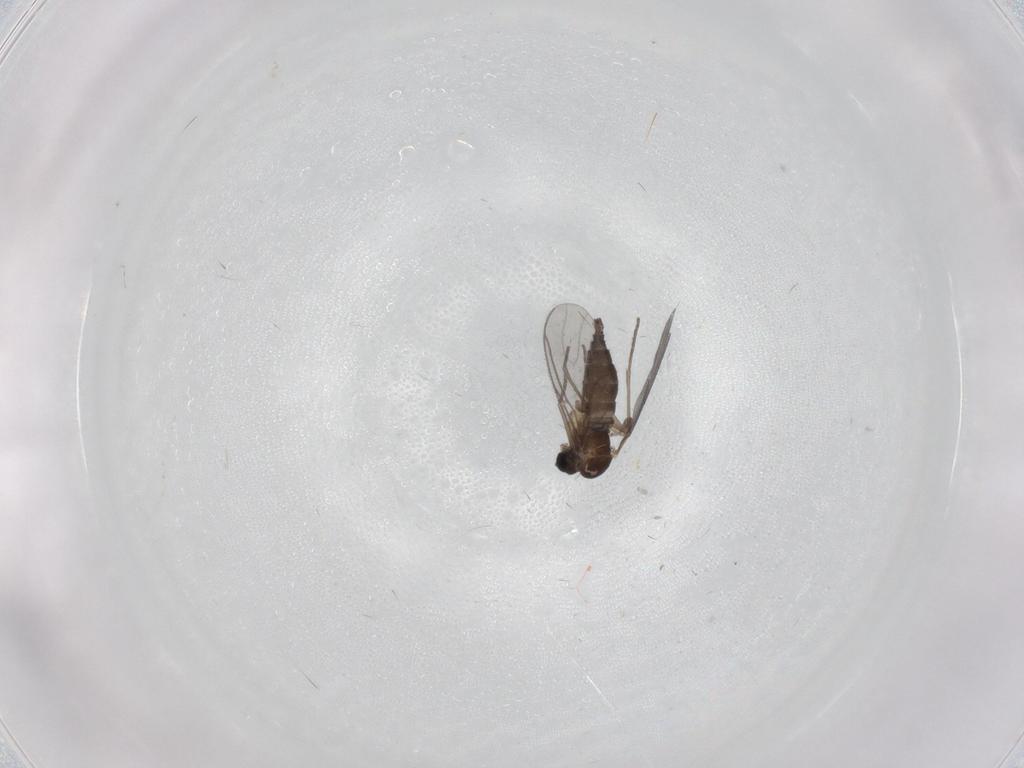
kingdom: Animalia
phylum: Arthropoda
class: Insecta
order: Diptera
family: Sciaridae
